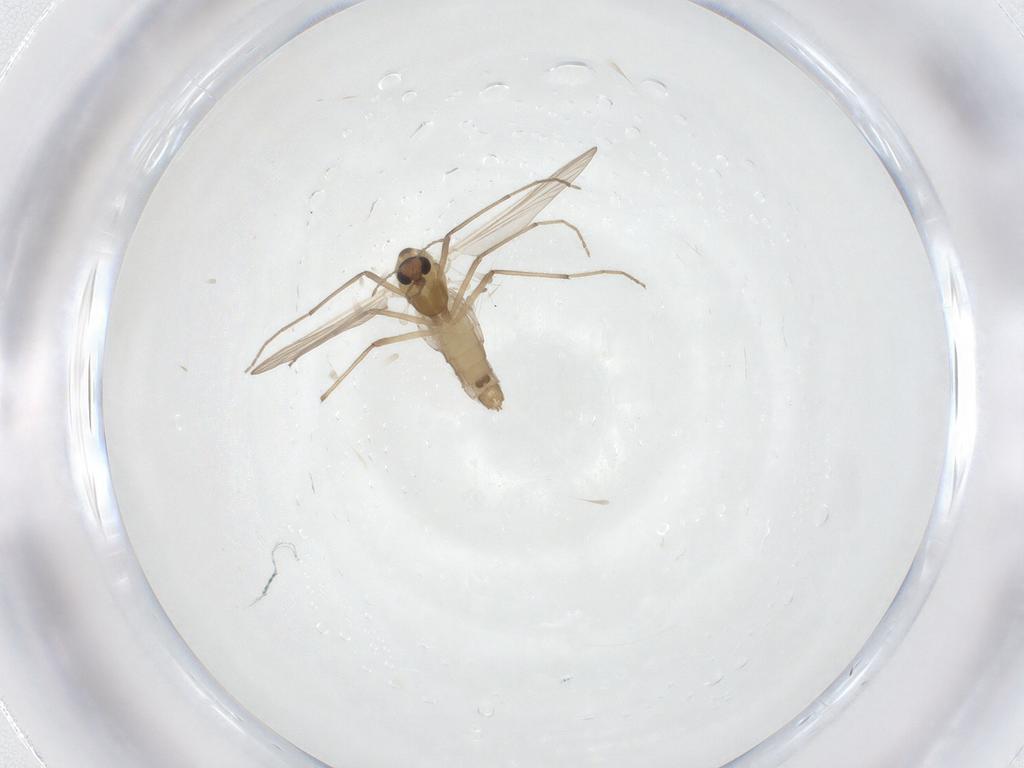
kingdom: Animalia
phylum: Arthropoda
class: Insecta
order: Diptera
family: Chironomidae
